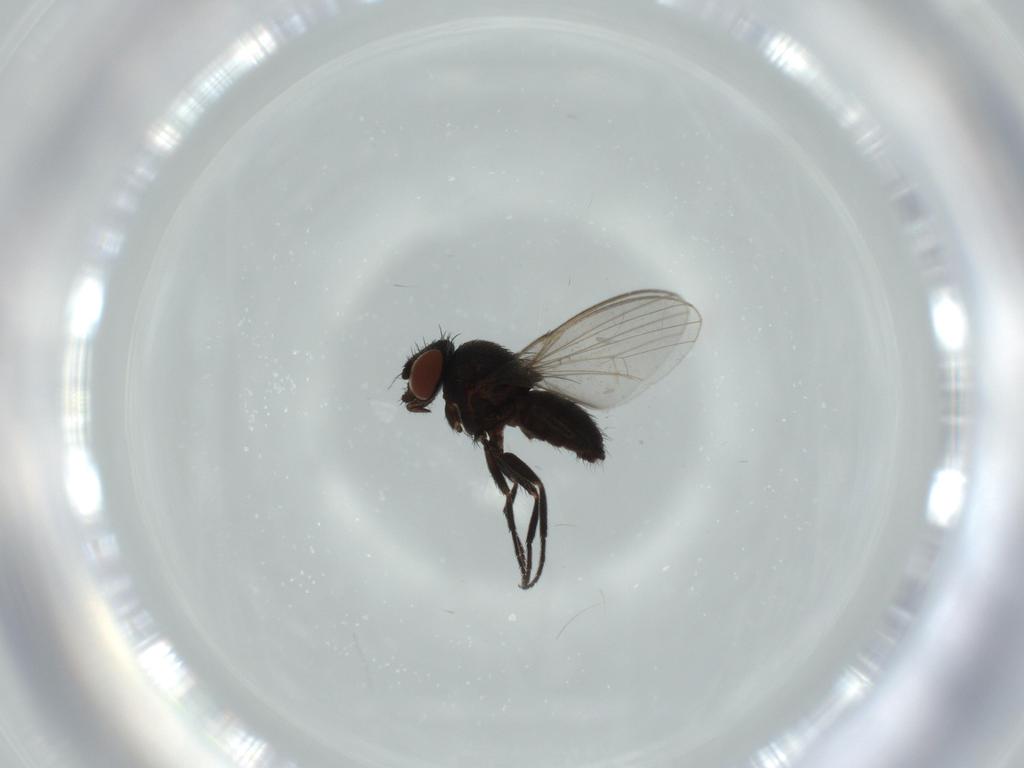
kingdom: Animalia
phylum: Arthropoda
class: Insecta
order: Diptera
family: Milichiidae
